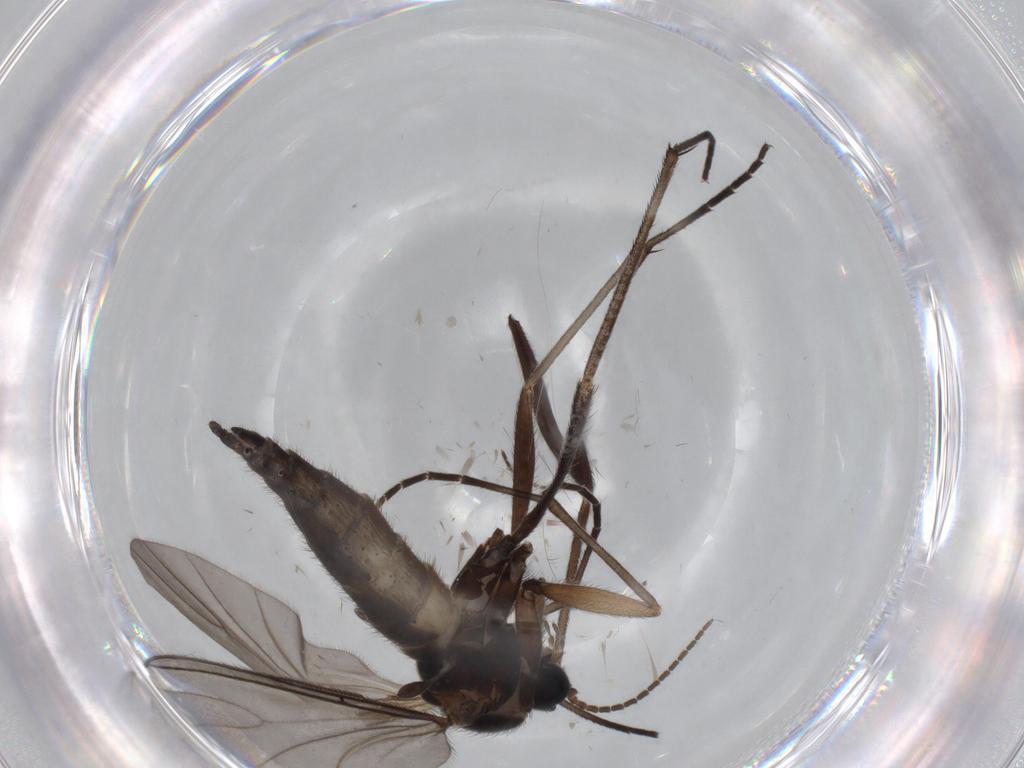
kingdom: Animalia
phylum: Arthropoda
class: Insecta
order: Diptera
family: Sciaridae
